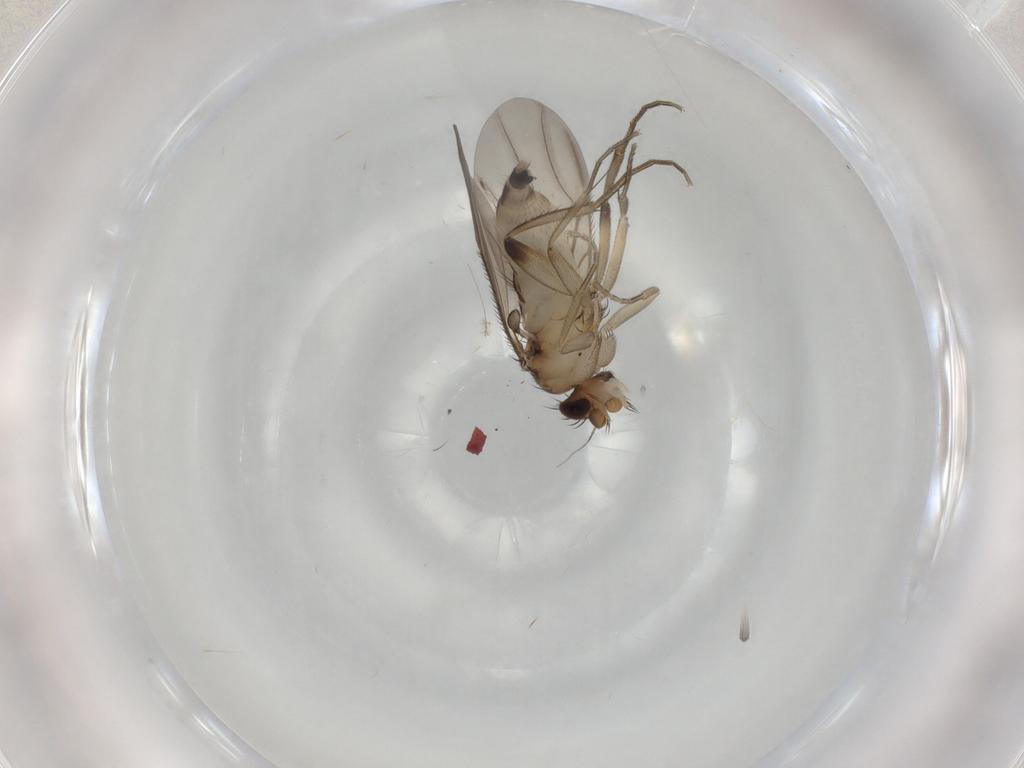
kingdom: Animalia
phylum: Arthropoda
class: Insecta
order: Diptera
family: Phoridae
